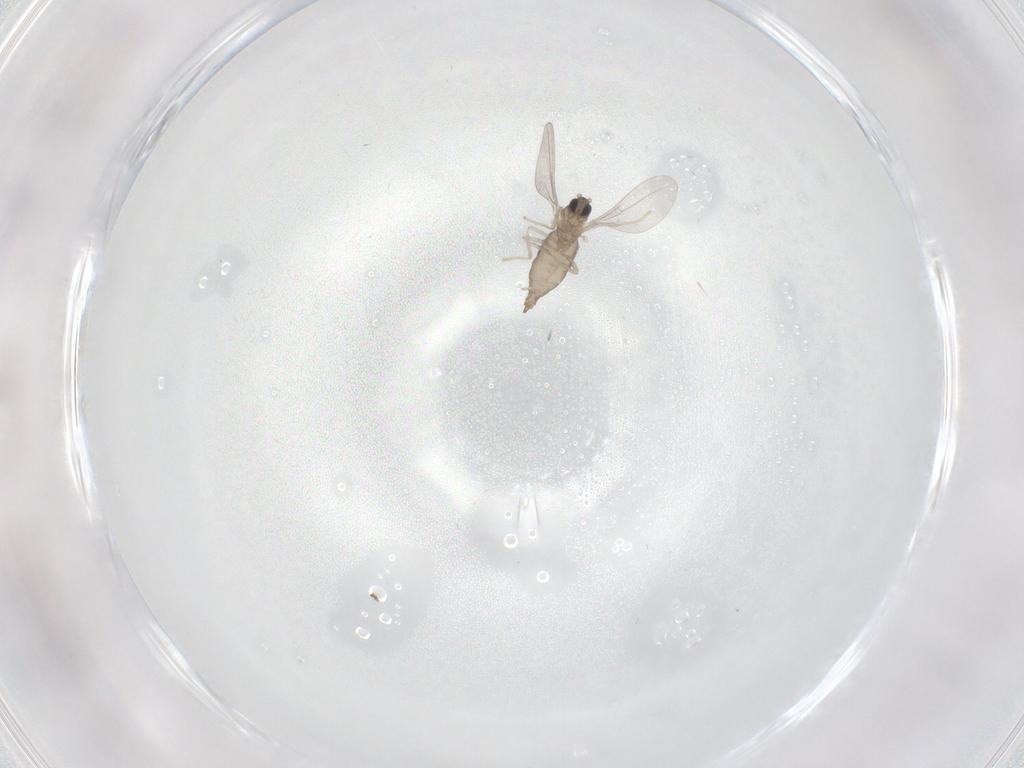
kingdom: Animalia
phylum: Arthropoda
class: Insecta
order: Diptera
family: Cecidomyiidae
